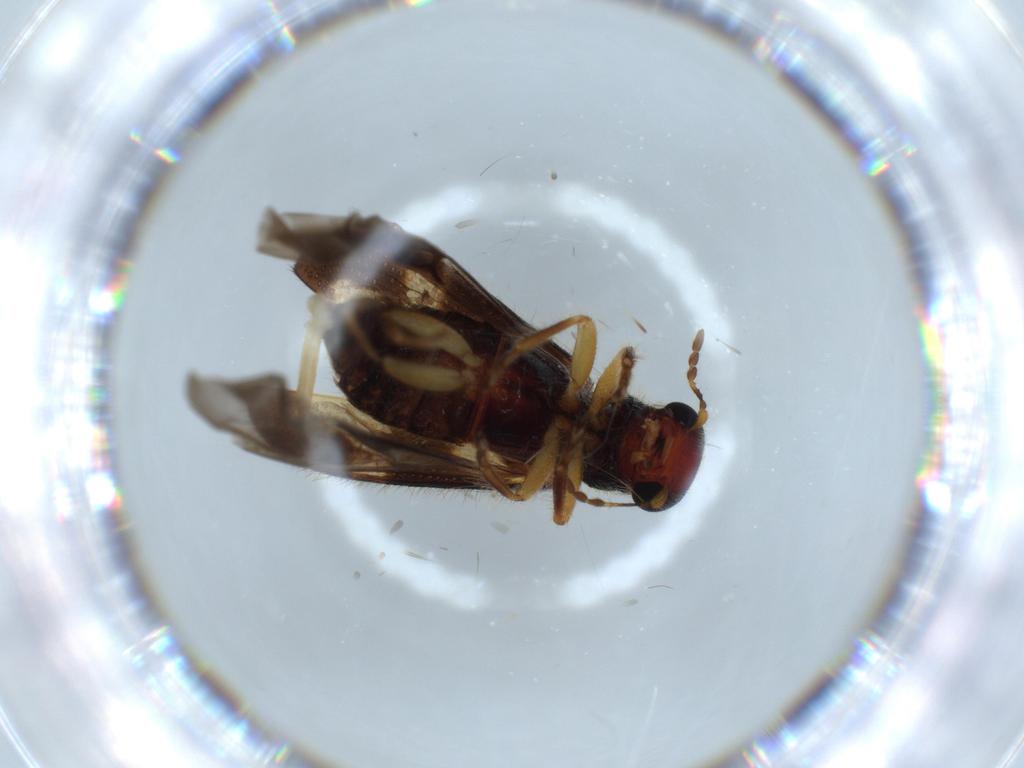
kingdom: Animalia
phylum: Arthropoda
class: Insecta
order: Coleoptera
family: Cleridae
